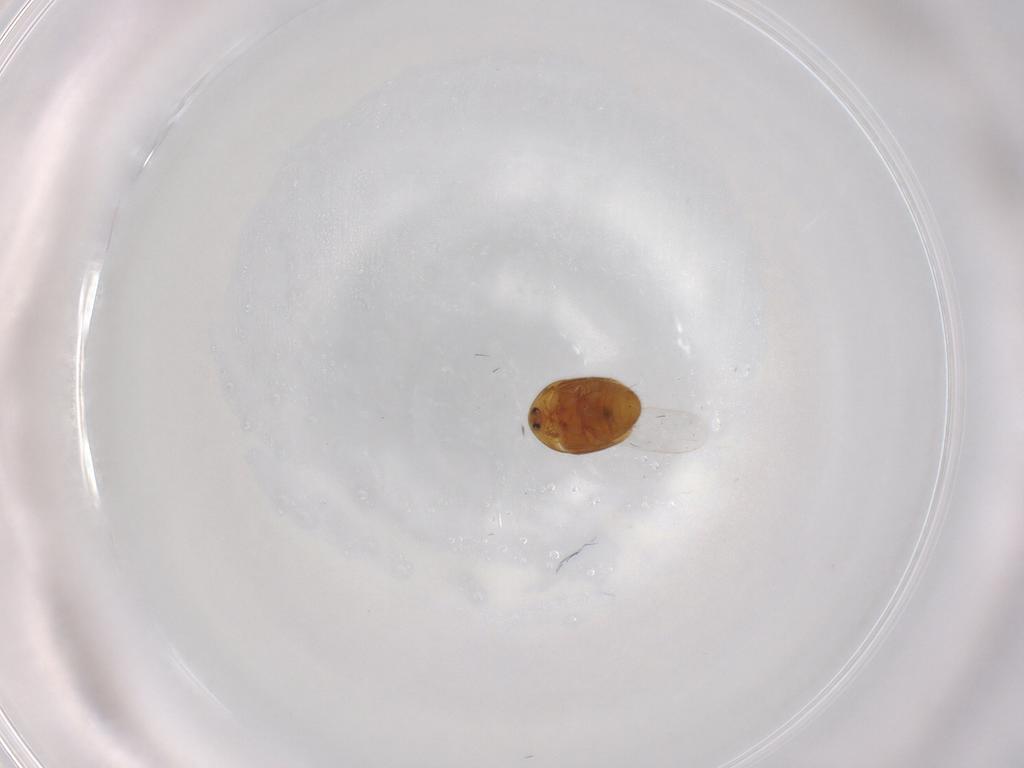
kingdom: Animalia
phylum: Arthropoda
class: Insecta
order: Coleoptera
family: Corylophidae
